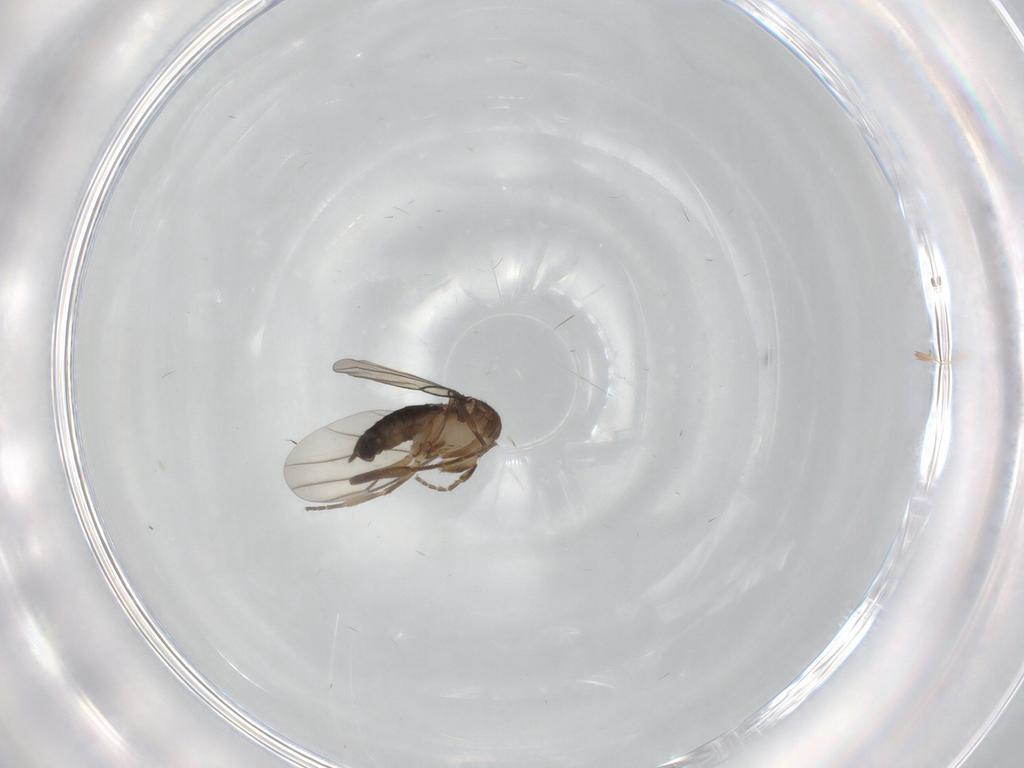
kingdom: Animalia
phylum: Arthropoda
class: Insecta
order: Diptera
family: Phoridae
